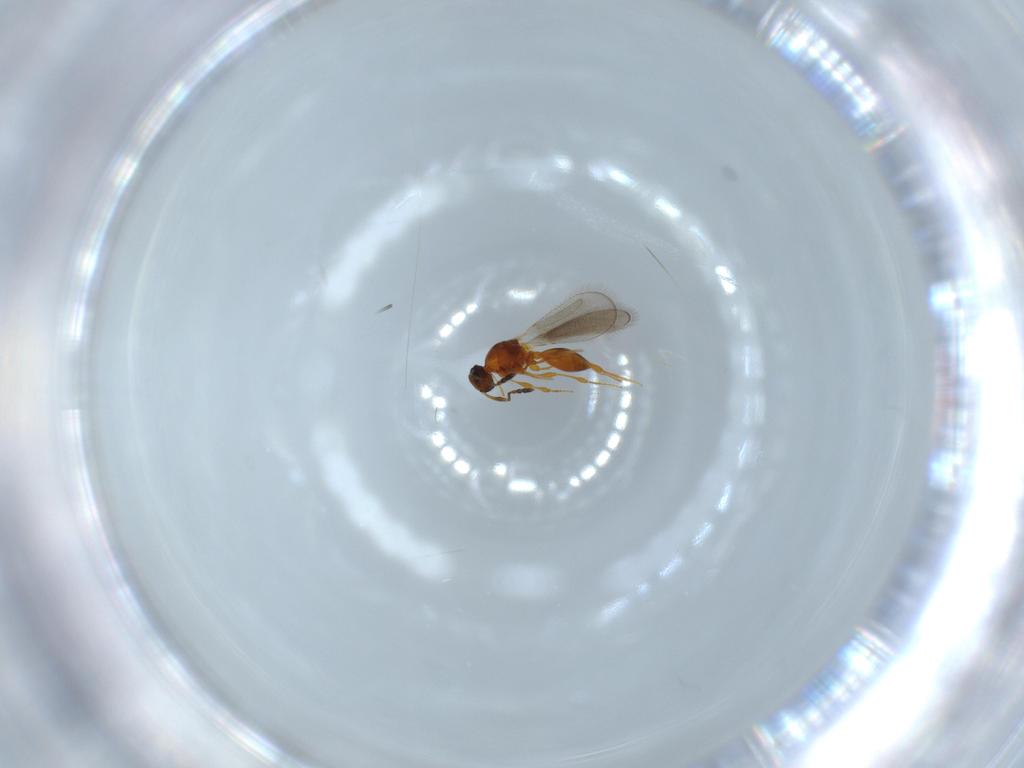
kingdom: Animalia
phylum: Arthropoda
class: Insecta
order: Hymenoptera
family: Platygastridae
